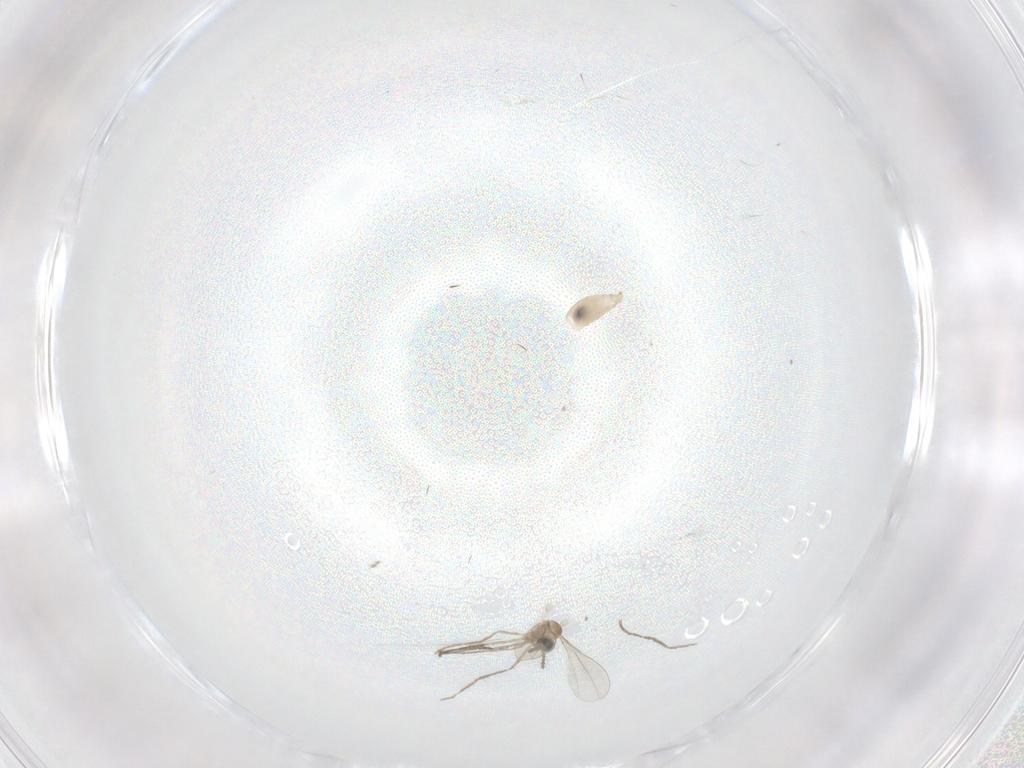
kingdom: Animalia
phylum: Arthropoda
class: Insecta
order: Diptera
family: Cecidomyiidae
